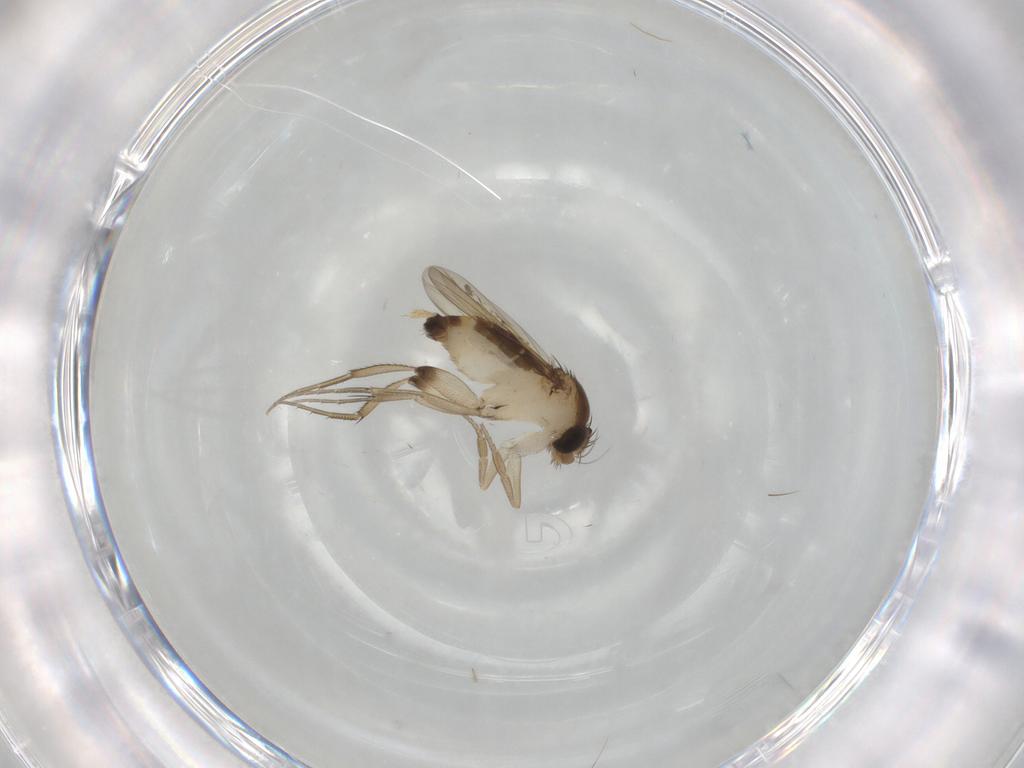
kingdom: Animalia
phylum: Arthropoda
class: Insecta
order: Diptera
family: Phoridae
